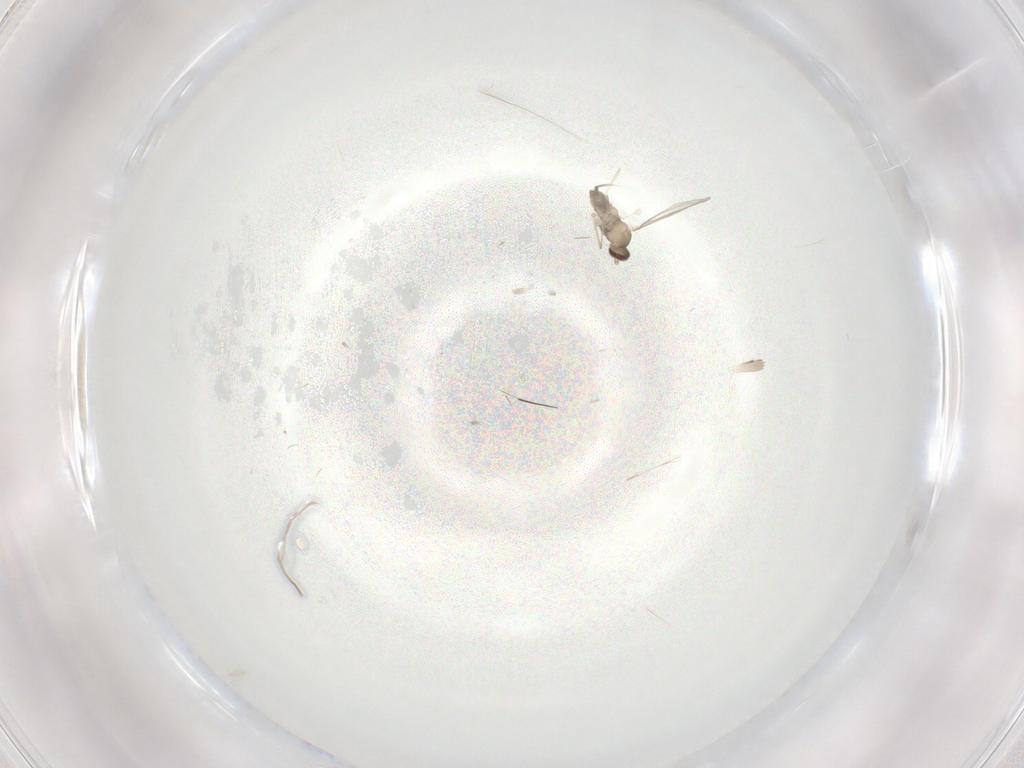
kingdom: Animalia
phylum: Arthropoda
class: Insecta
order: Diptera
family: Cecidomyiidae
